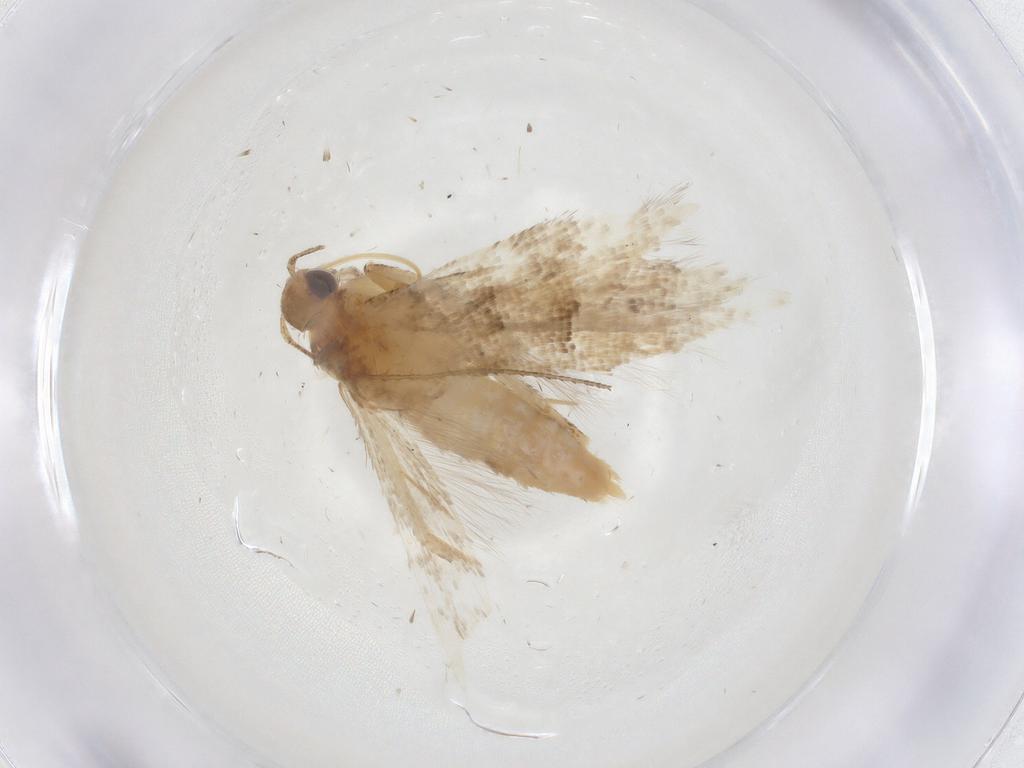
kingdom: Animalia
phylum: Arthropoda
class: Insecta
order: Lepidoptera
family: Gelechiidae
